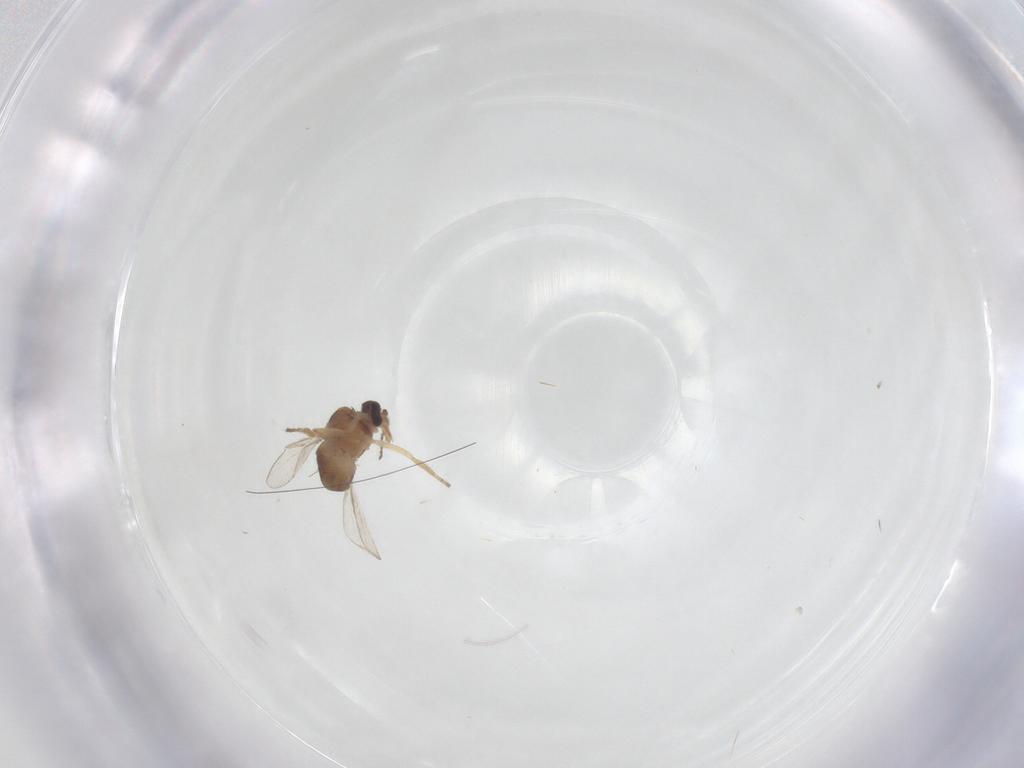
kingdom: Animalia
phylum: Arthropoda
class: Insecta
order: Diptera
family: Ceratopogonidae
